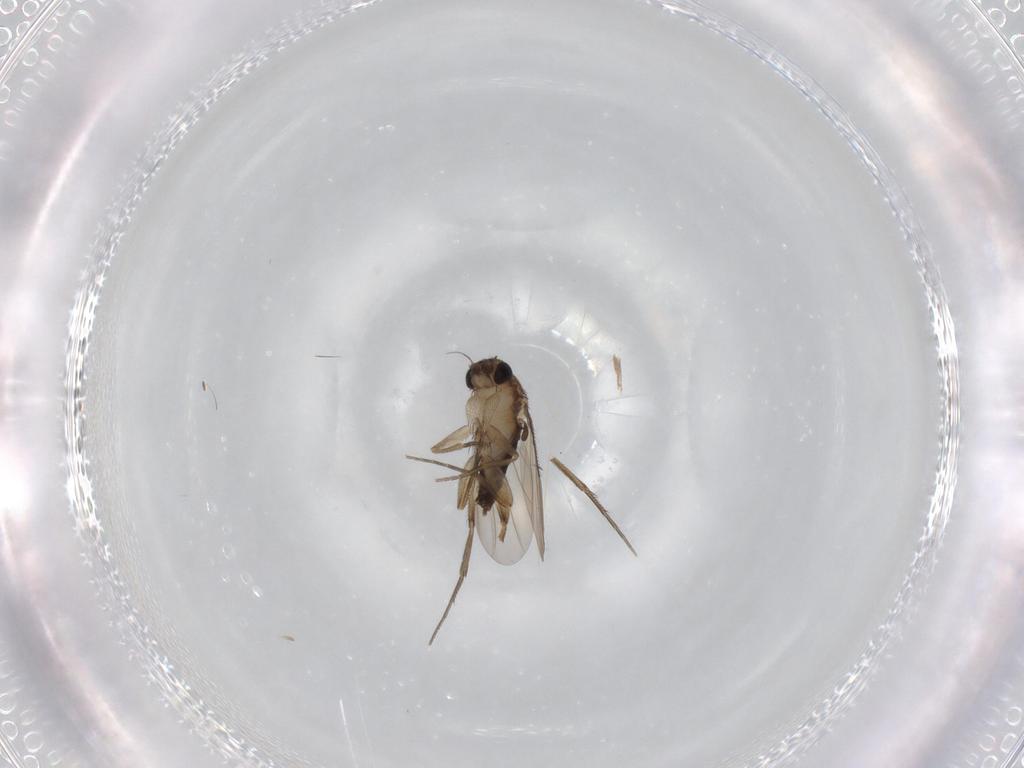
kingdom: Animalia
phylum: Arthropoda
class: Insecta
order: Diptera
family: Phoridae
